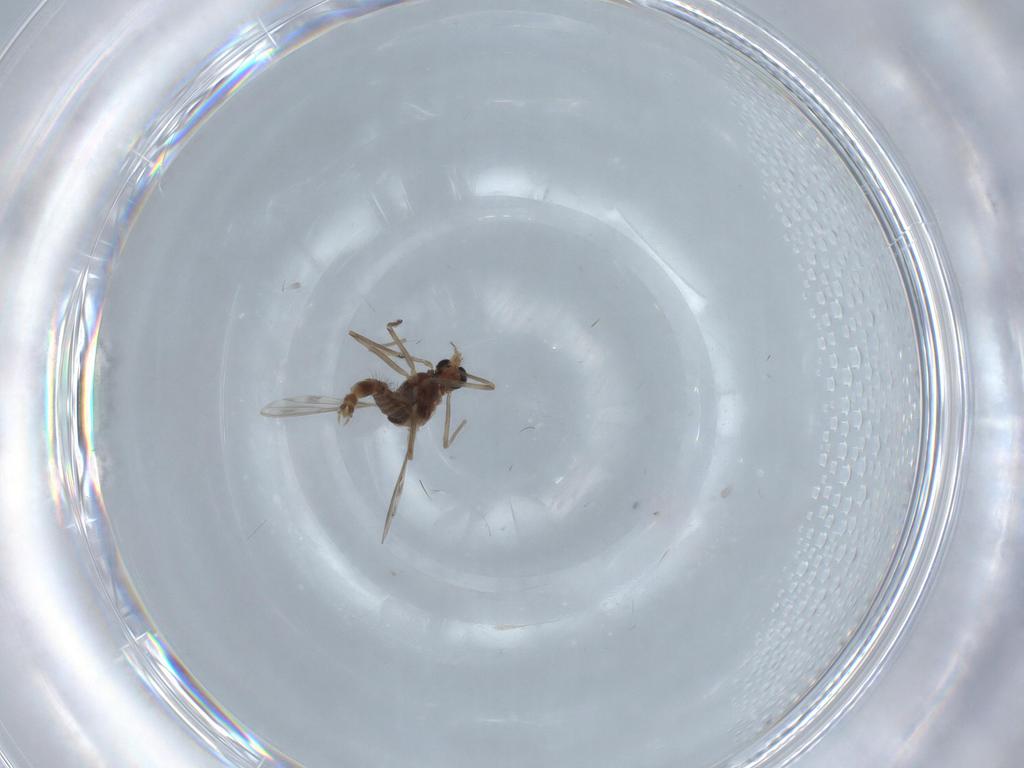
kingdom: Animalia
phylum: Arthropoda
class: Insecta
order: Diptera
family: Chironomidae
